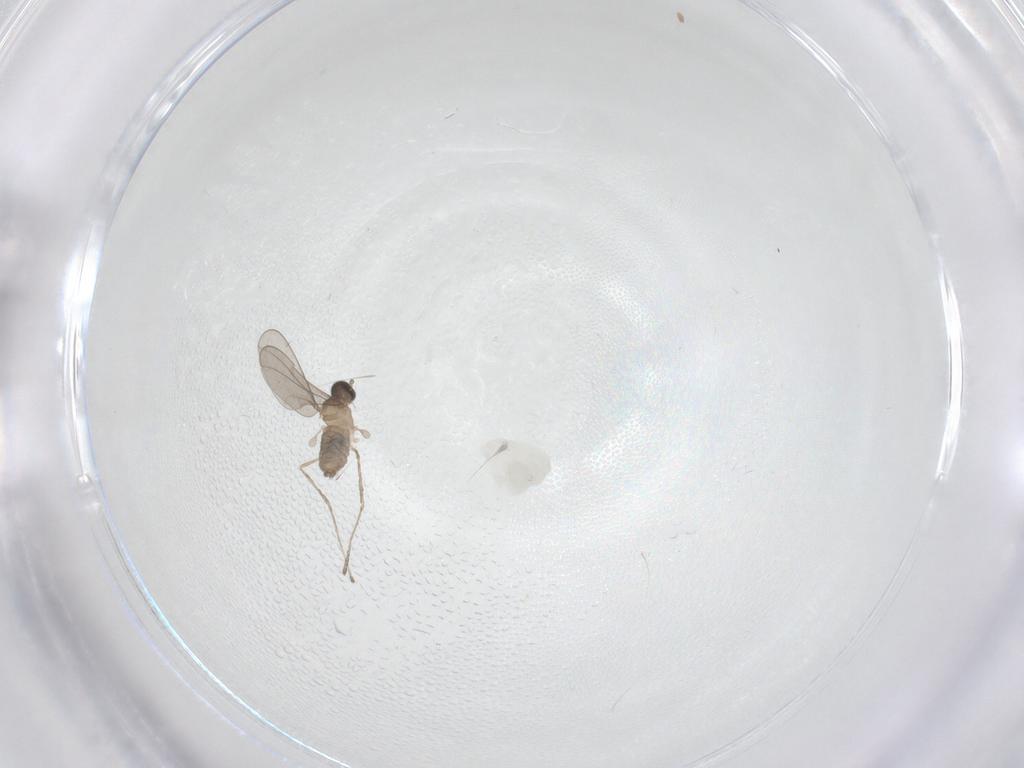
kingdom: Animalia
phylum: Arthropoda
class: Insecta
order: Diptera
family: Cecidomyiidae
